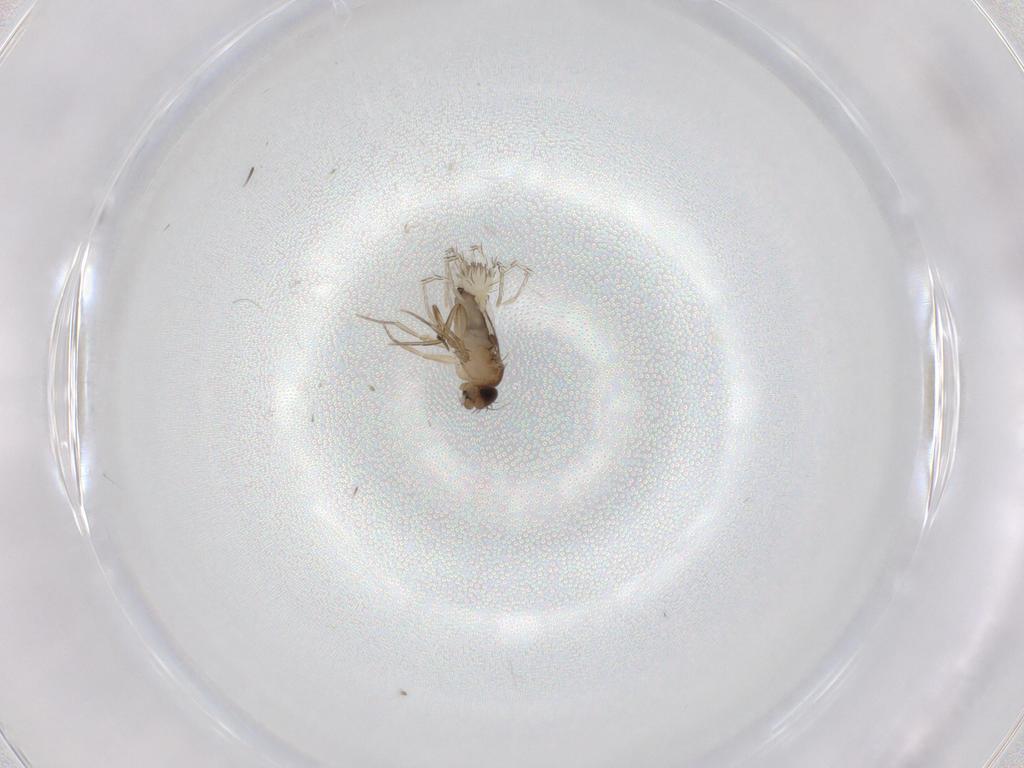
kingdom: Animalia
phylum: Arthropoda
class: Insecta
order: Diptera
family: Phoridae
